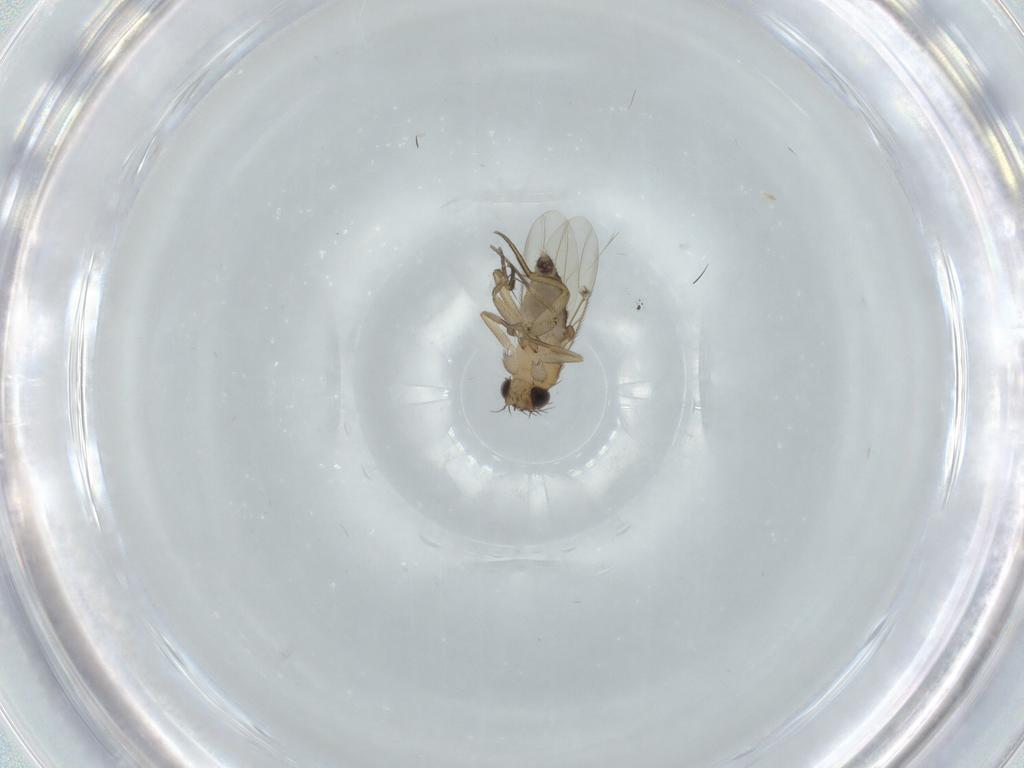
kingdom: Animalia
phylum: Arthropoda
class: Insecta
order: Diptera
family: Phoridae
